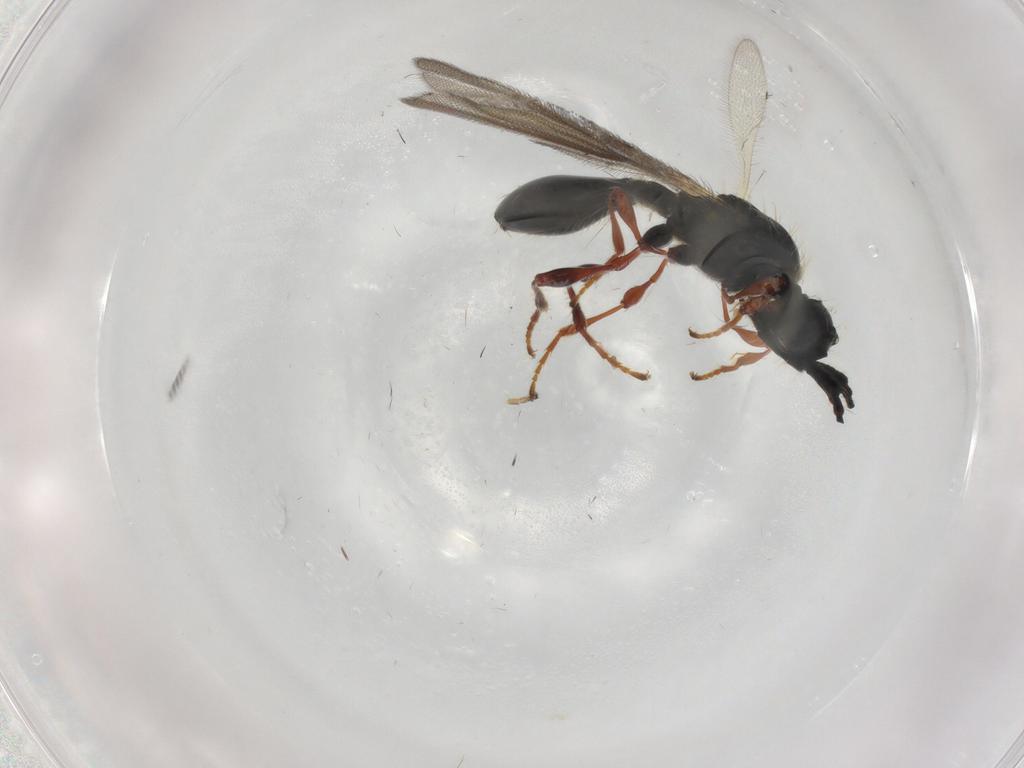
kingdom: Animalia
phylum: Arthropoda
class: Insecta
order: Hymenoptera
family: Diapriidae
